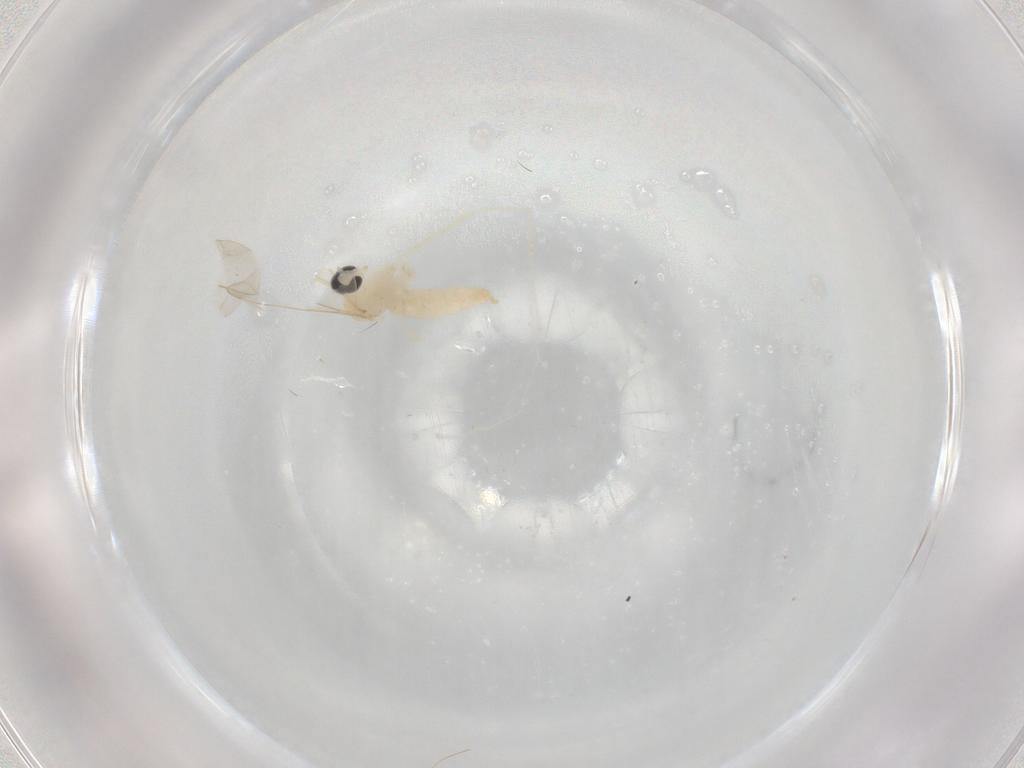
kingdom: Animalia
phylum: Arthropoda
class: Insecta
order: Diptera
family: Cecidomyiidae
